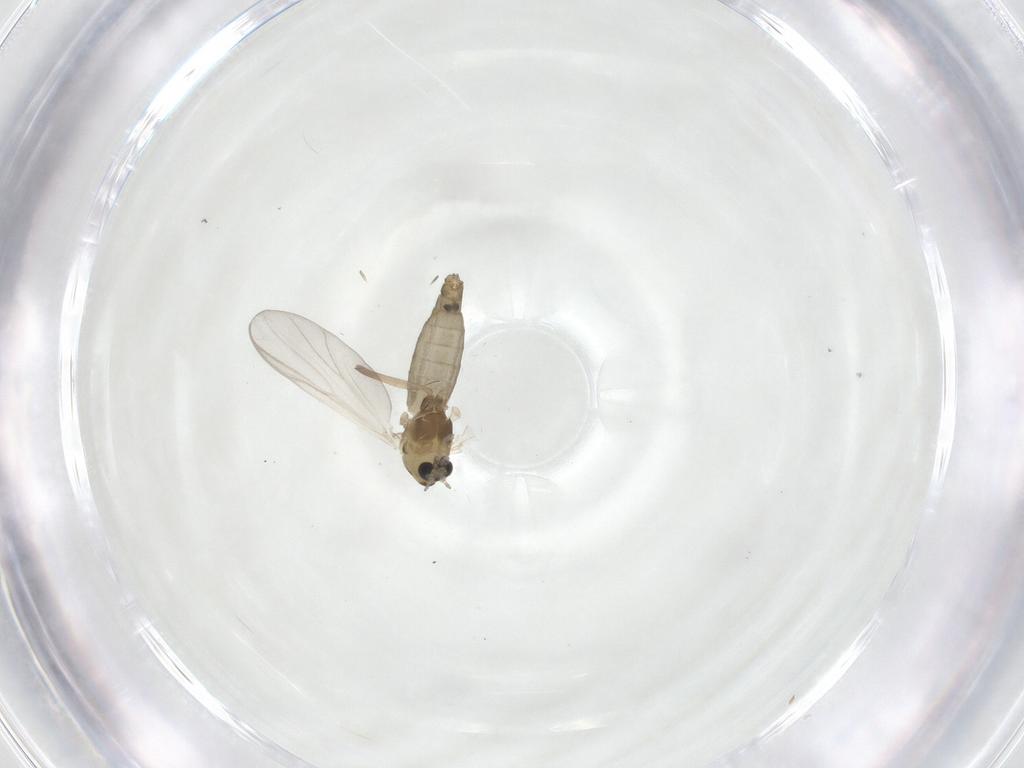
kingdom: Animalia
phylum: Arthropoda
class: Insecta
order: Diptera
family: Chironomidae
